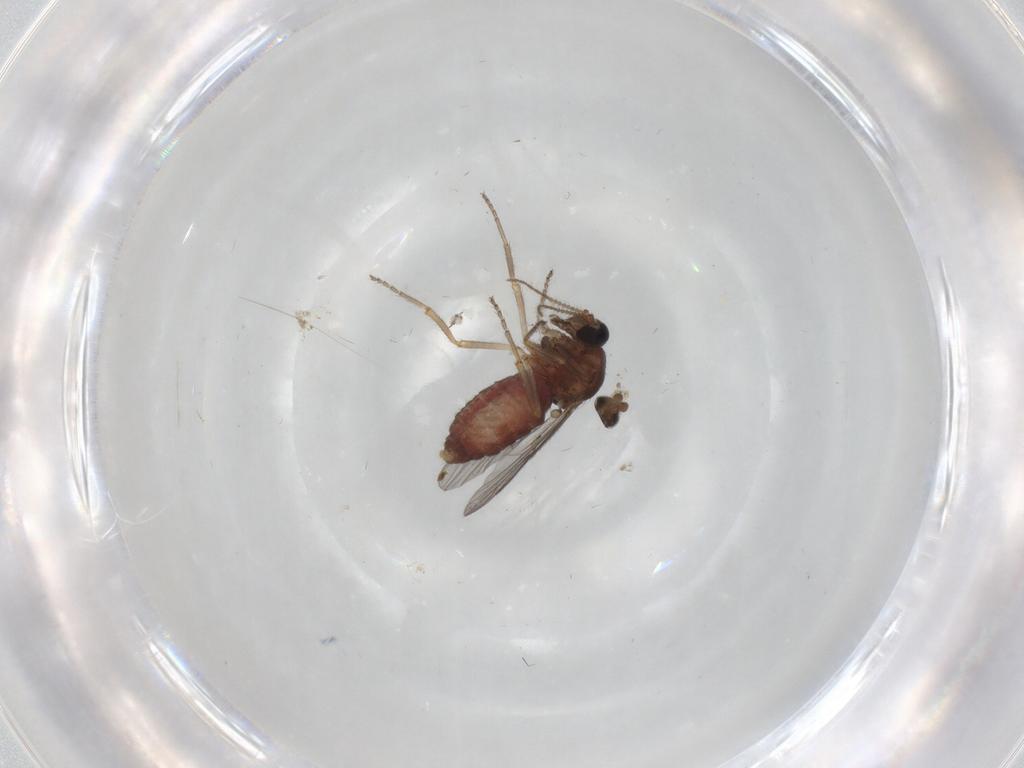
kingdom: Animalia
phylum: Arthropoda
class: Insecta
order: Diptera
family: Ceratopogonidae
